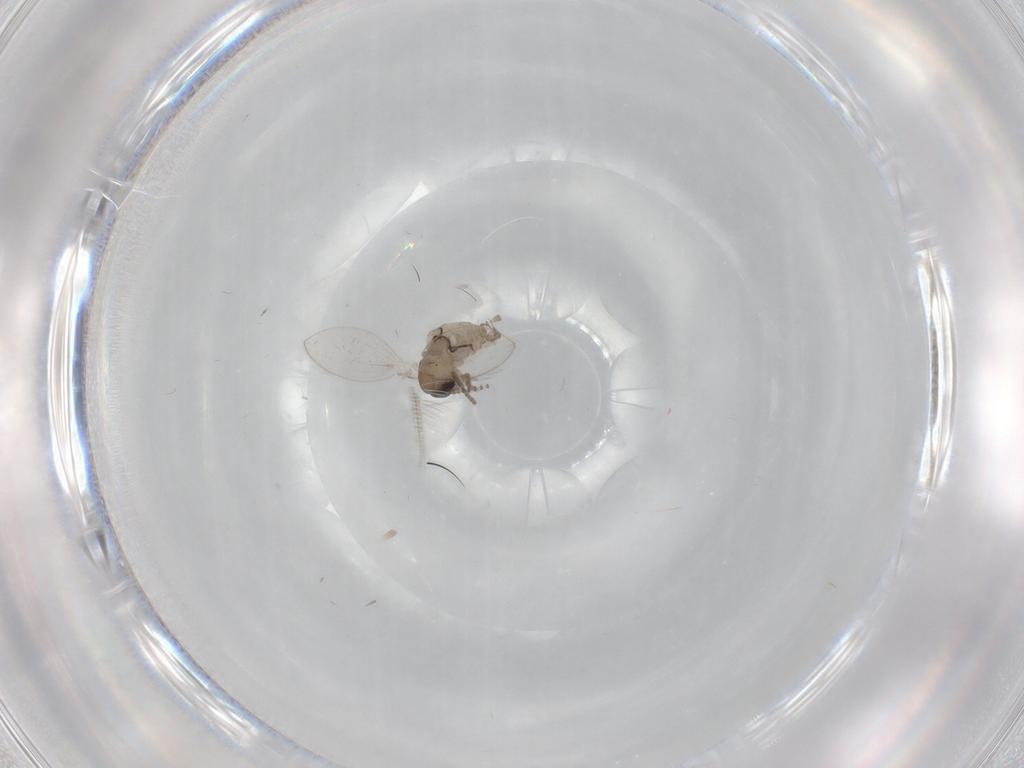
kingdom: Animalia
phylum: Arthropoda
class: Insecta
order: Diptera
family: Psychodidae
